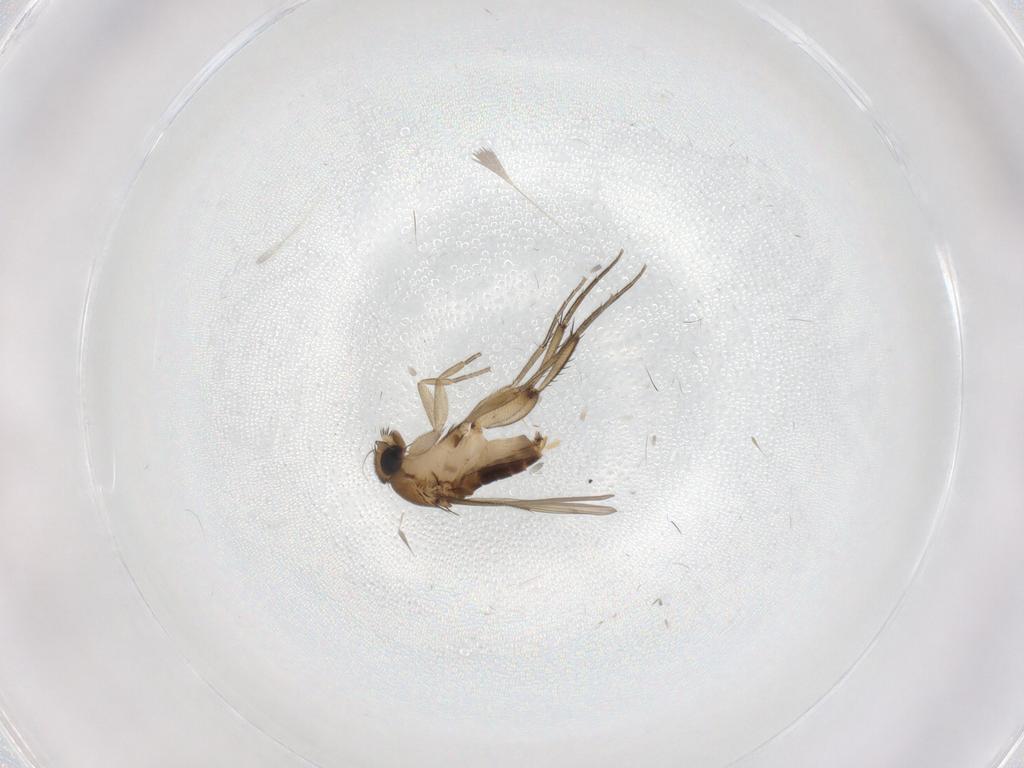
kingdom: Animalia
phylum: Arthropoda
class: Insecta
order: Diptera
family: Phoridae
